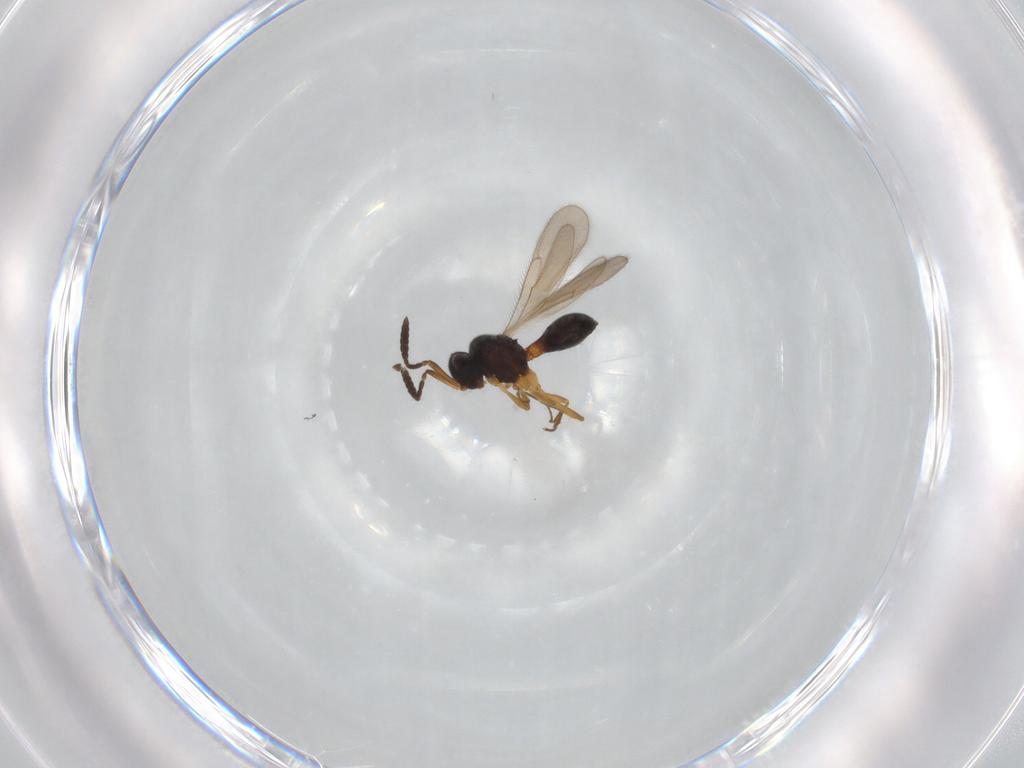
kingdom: Animalia
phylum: Arthropoda
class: Insecta
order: Hymenoptera
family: Scelionidae
